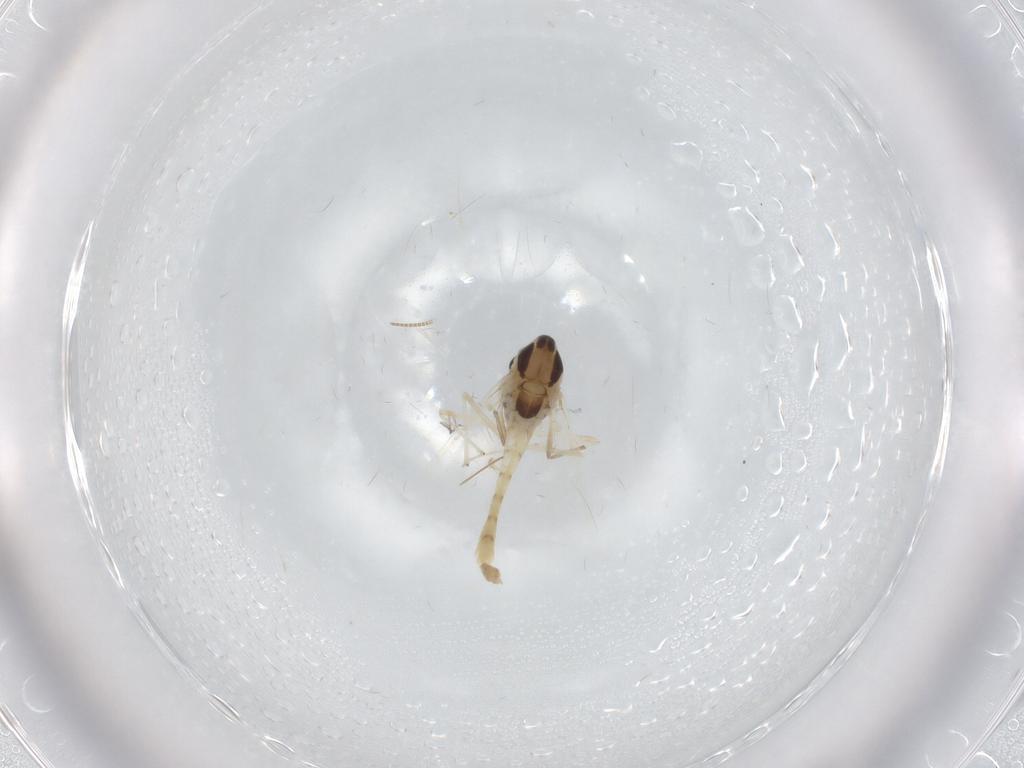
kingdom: Animalia
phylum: Arthropoda
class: Insecta
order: Diptera
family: Chironomidae
